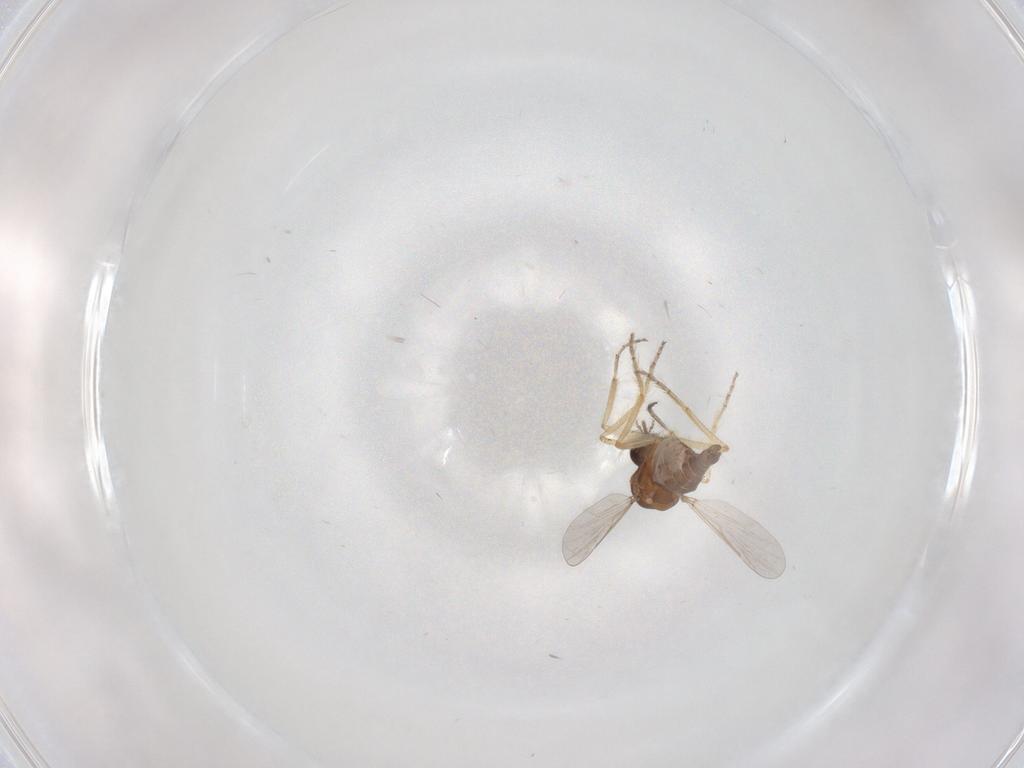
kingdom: Animalia
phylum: Arthropoda
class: Insecta
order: Diptera
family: Ceratopogonidae
